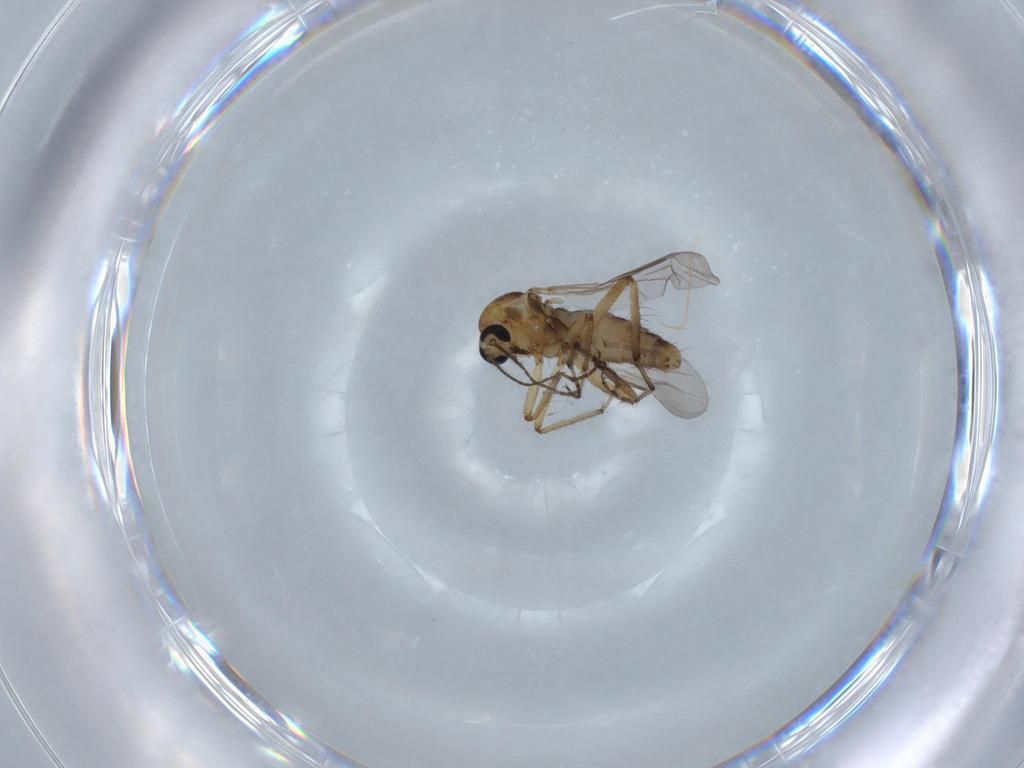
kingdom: Animalia
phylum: Arthropoda
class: Insecta
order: Diptera
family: Ceratopogonidae
